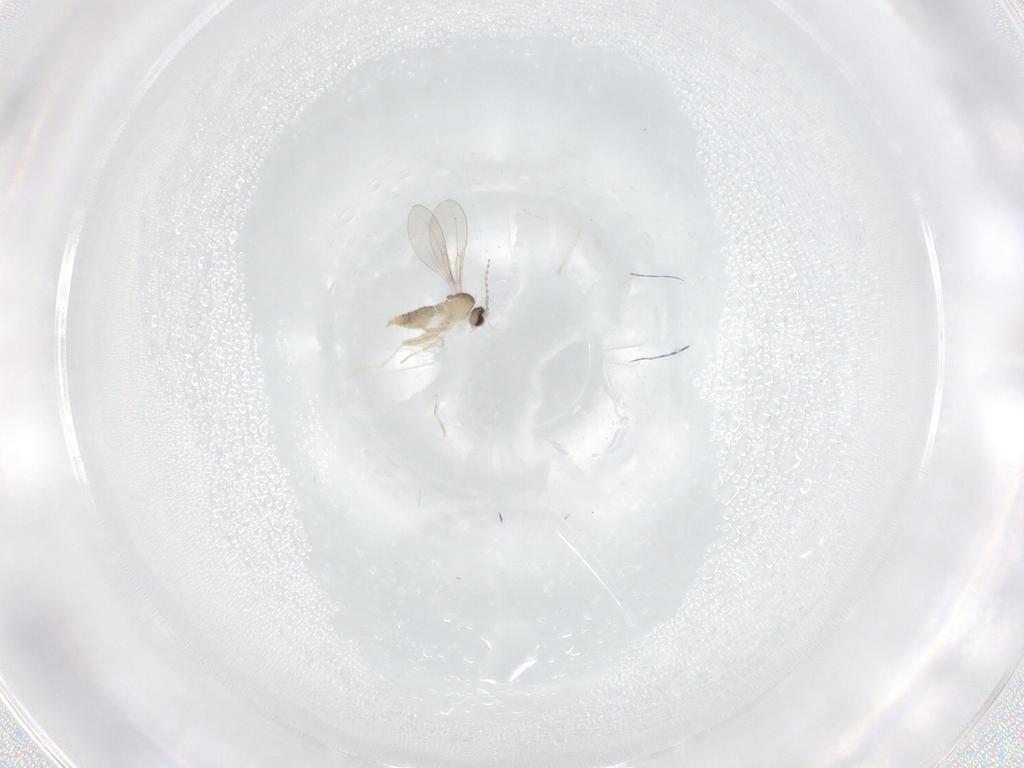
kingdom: Animalia
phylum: Arthropoda
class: Insecta
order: Diptera
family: Cecidomyiidae
